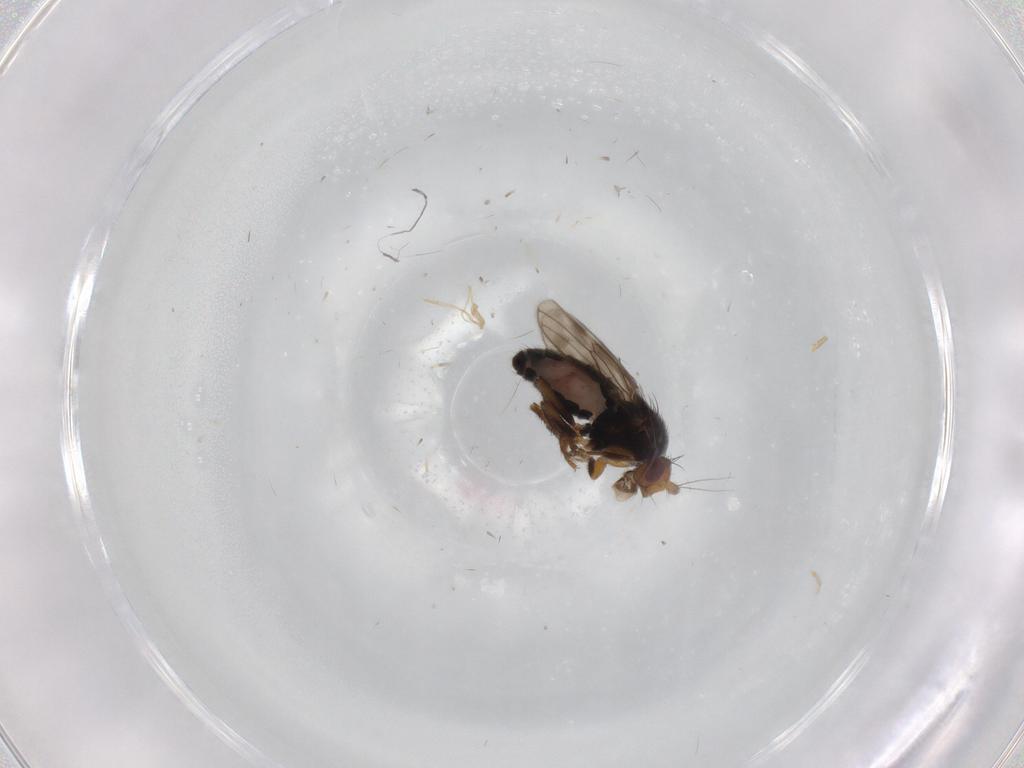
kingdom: Animalia
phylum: Arthropoda
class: Insecta
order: Diptera
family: Sphaeroceridae
